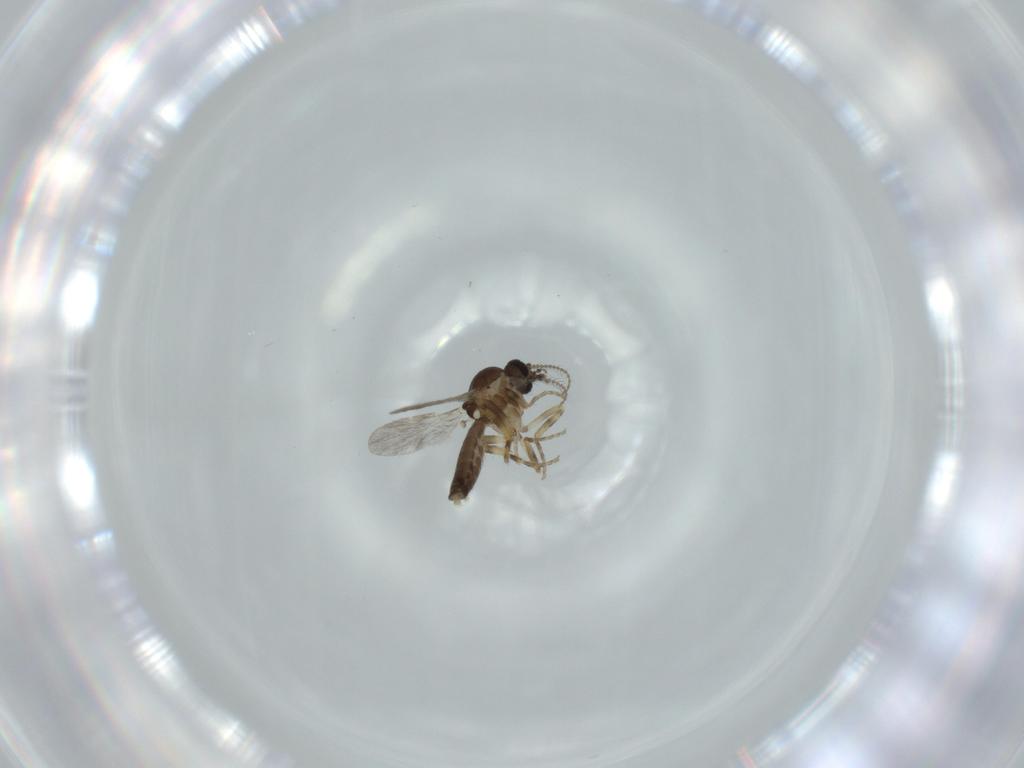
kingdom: Animalia
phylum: Arthropoda
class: Insecta
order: Diptera
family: Ceratopogonidae
